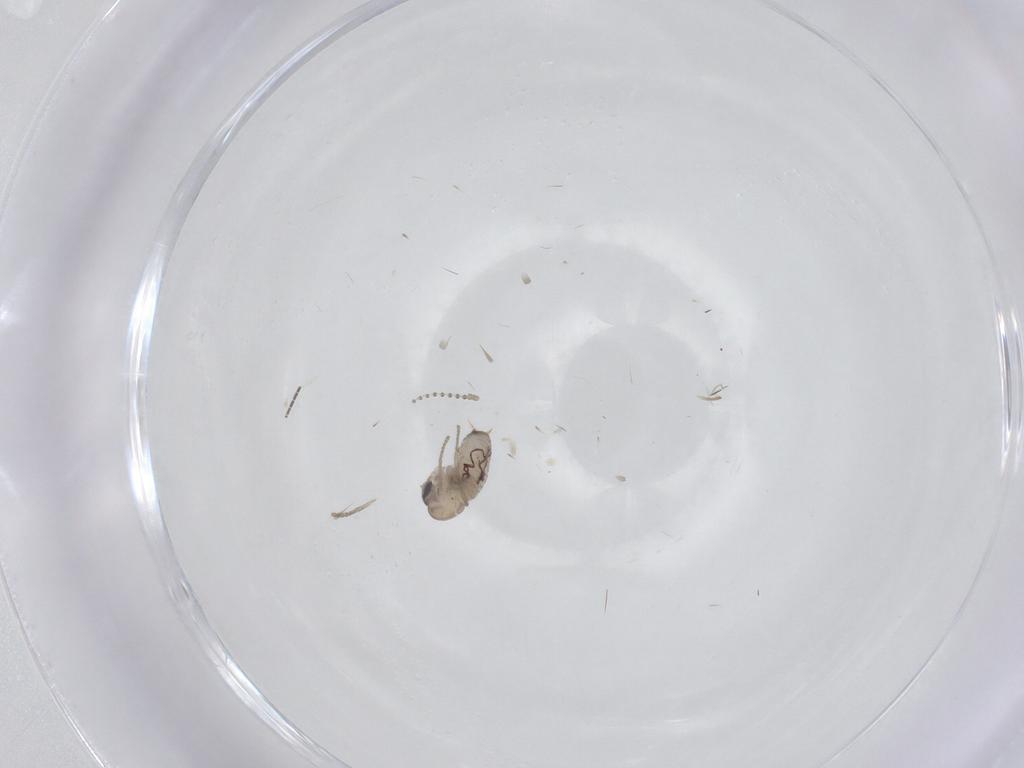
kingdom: Animalia
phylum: Arthropoda
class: Insecta
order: Diptera
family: Psychodidae
